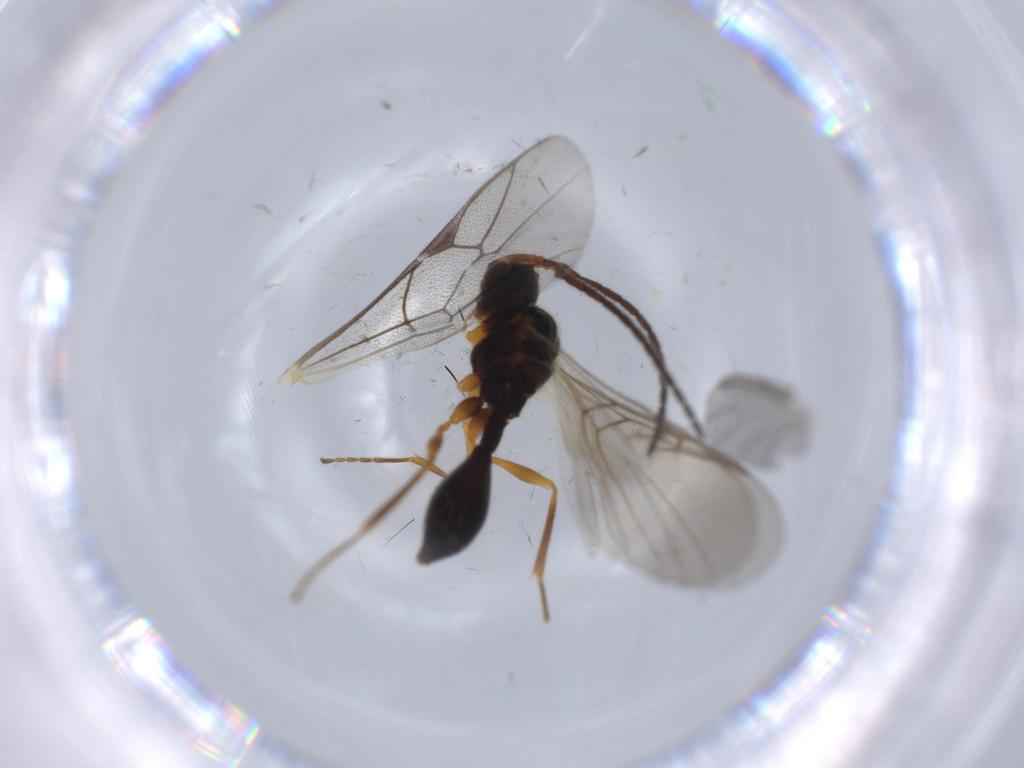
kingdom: Animalia
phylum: Arthropoda
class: Insecta
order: Hymenoptera
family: Diapriidae
